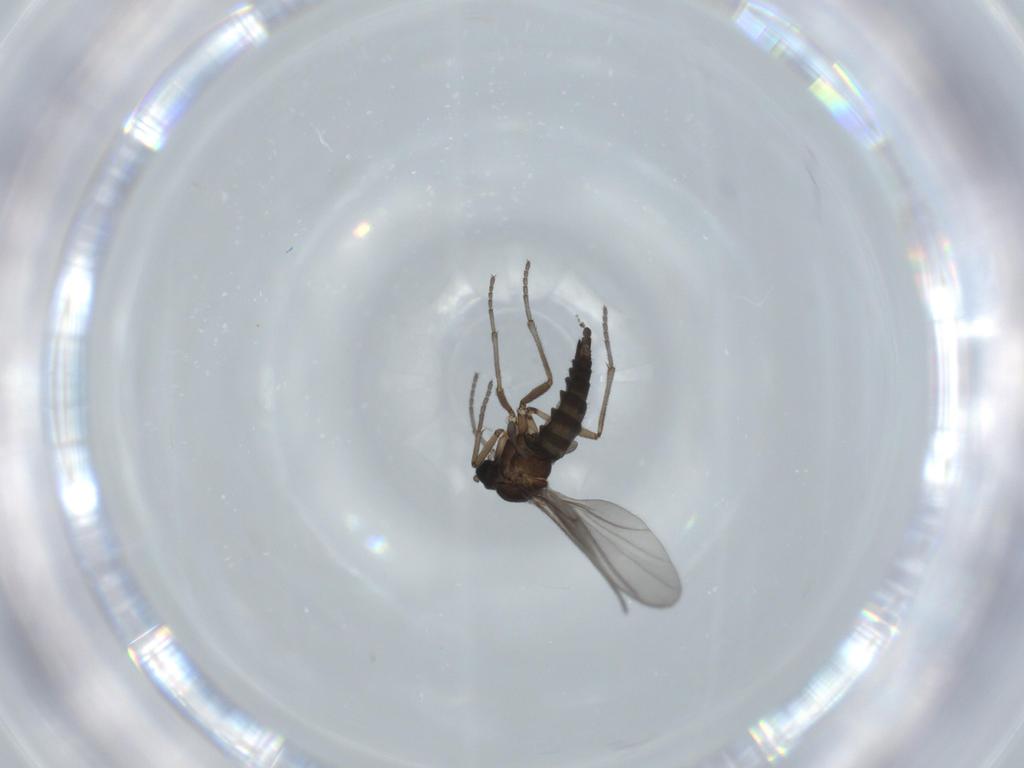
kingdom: Animalia
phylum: Arthropoda
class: Insecta
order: Diptera
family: Sciaridae
